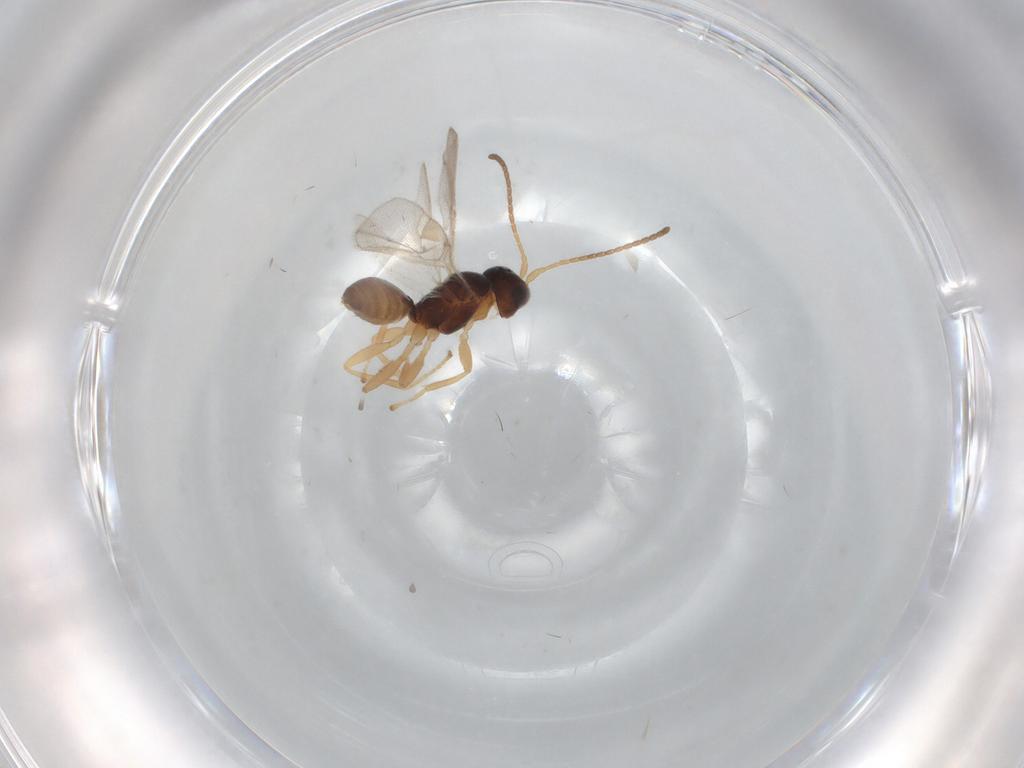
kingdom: Animalia
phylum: Arthropoda
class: Insecta
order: Hymenoptera
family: Braconidae
